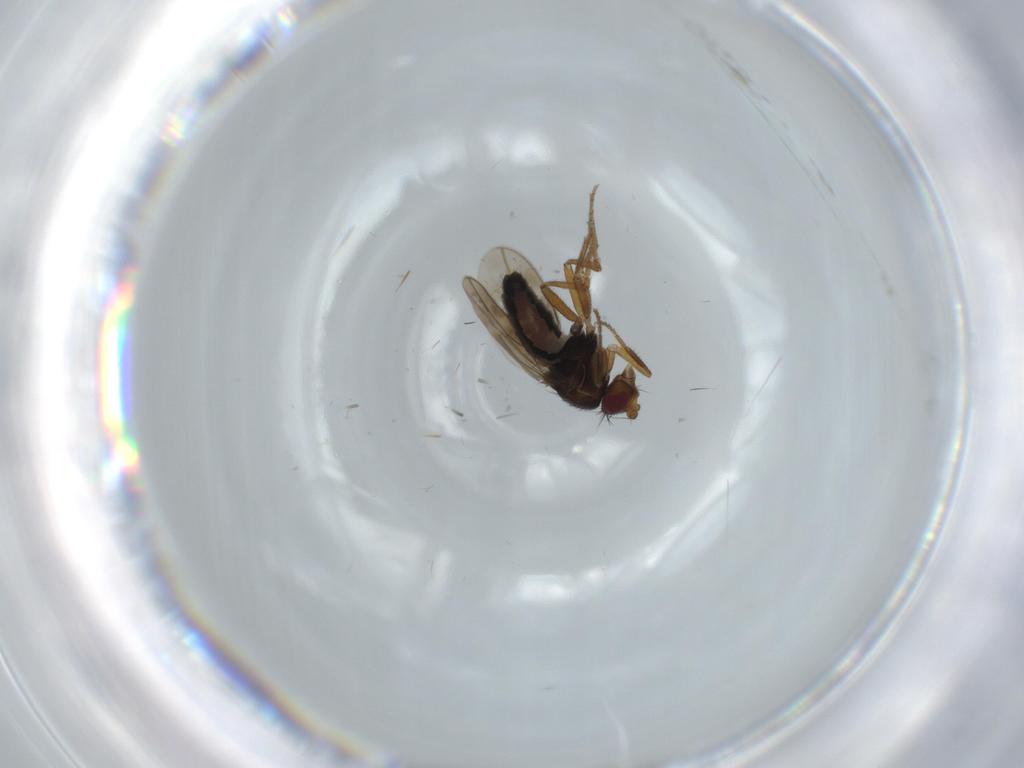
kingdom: Animalia
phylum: Arthropoda
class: Insecta
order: Diptera
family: Sphaeroceridae
